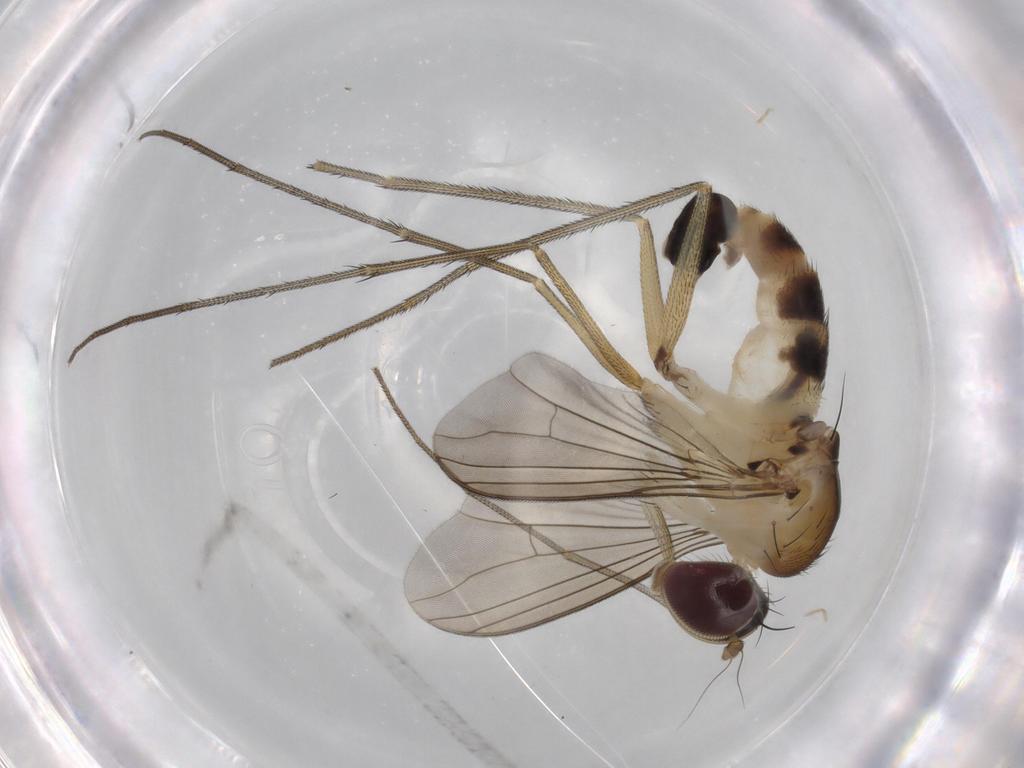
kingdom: Animalia
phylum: Arthropoda
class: Insecta
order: Diptera
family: Dolichopodidae
